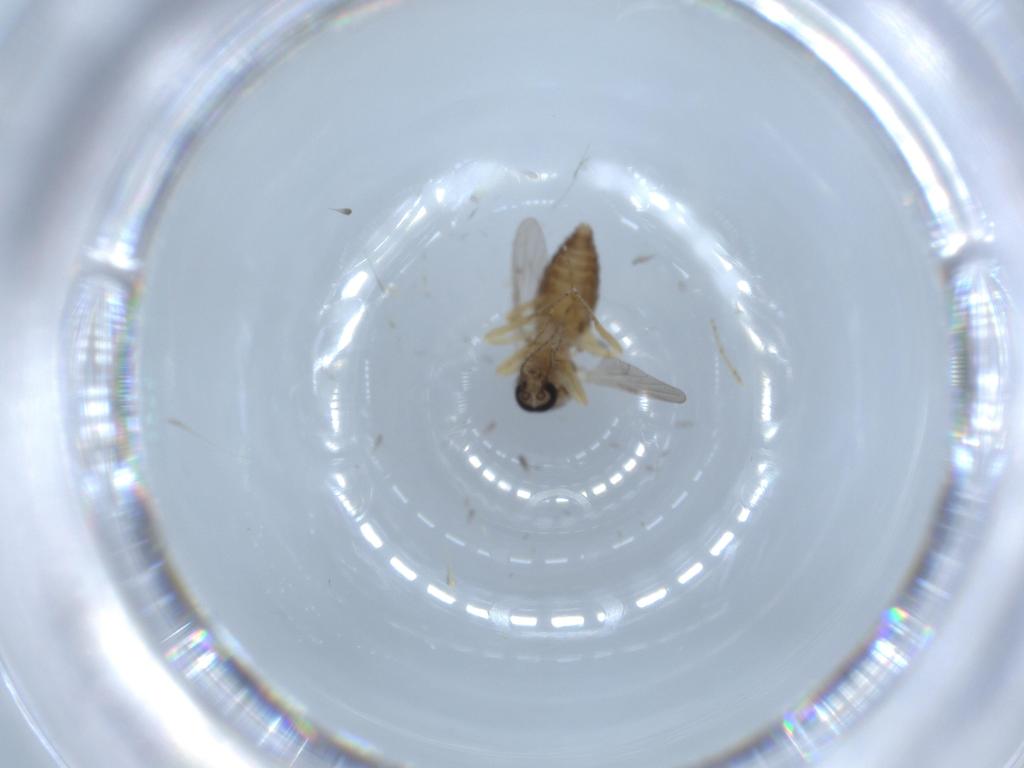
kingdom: Animalia
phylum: Arthropoda
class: Insecta
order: Diptera
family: Ceratopogonidae
